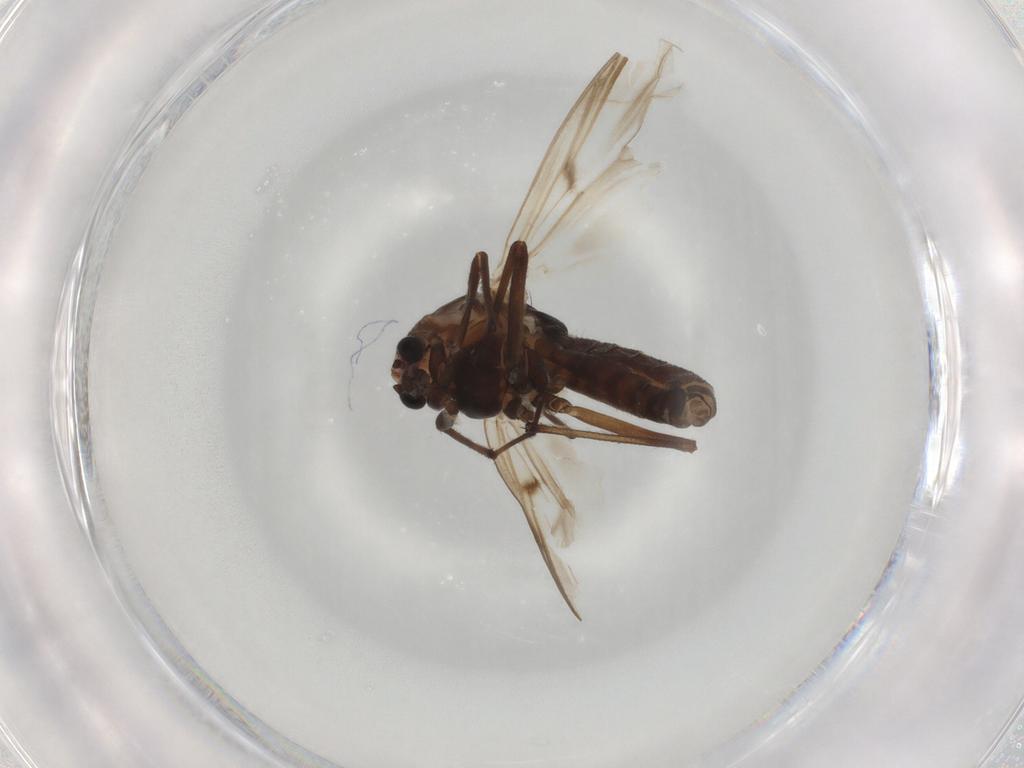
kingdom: Animalia
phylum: Arthropoda
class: Insecta
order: Diptera
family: Chironomidae
